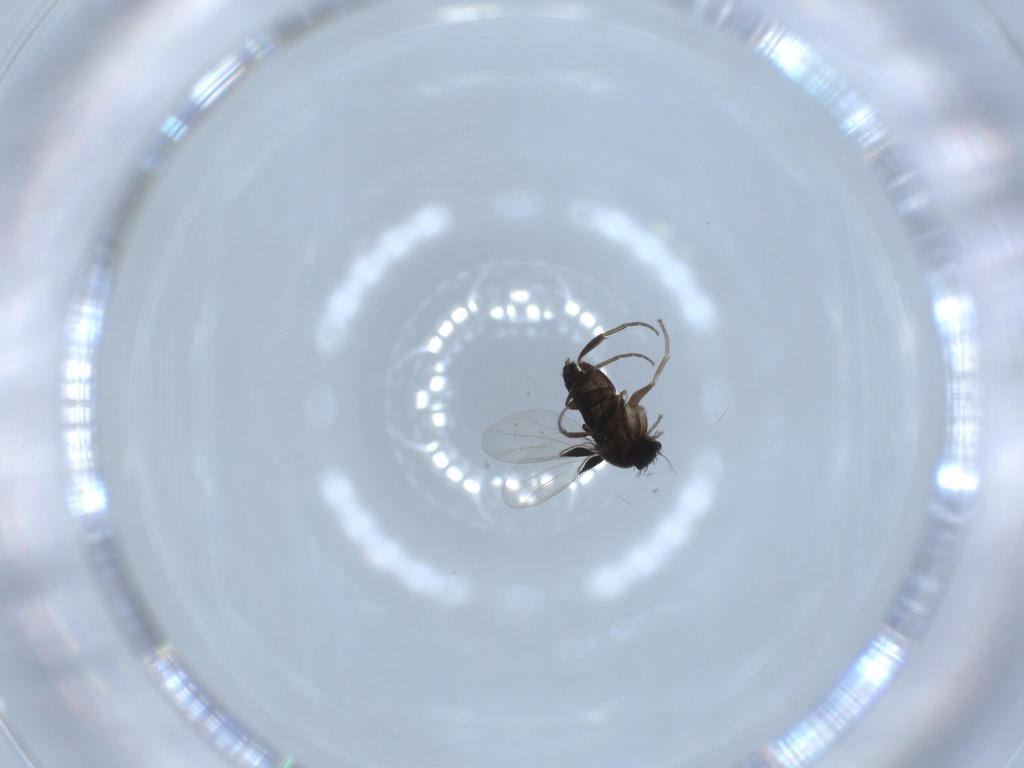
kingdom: Animalia
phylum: Arthropoda
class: Insecta
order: Diptera
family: Phoridae
